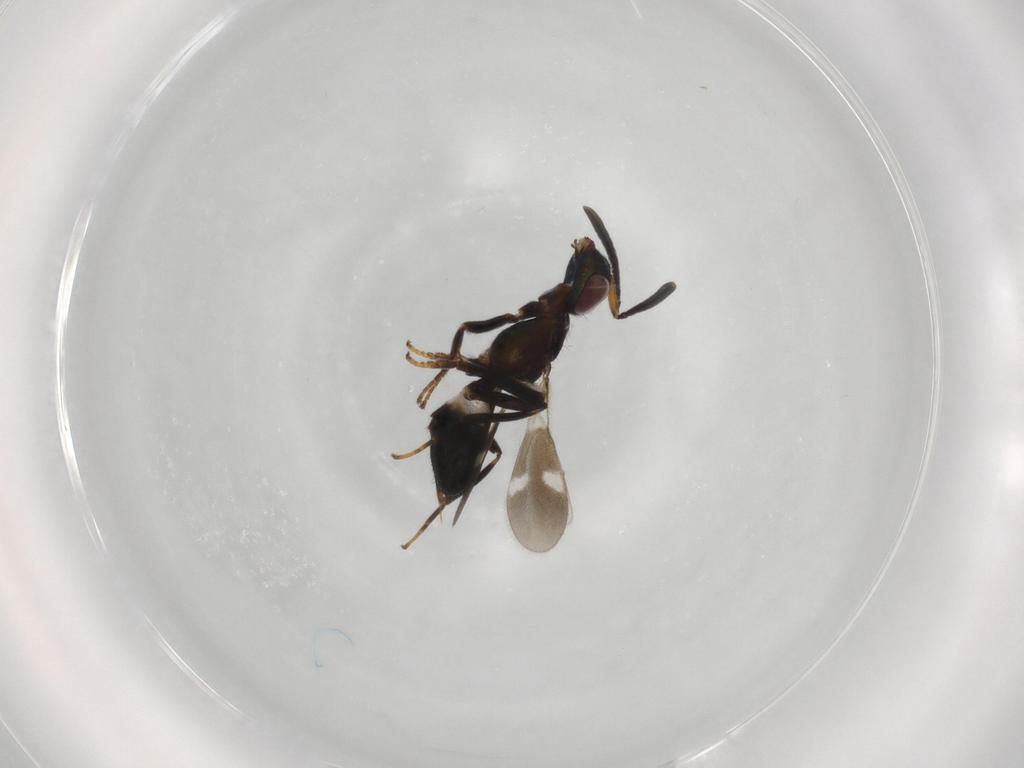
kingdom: Animalia
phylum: Arthropoda
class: Insecta
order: Hymenoptera
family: Eupelmidae
